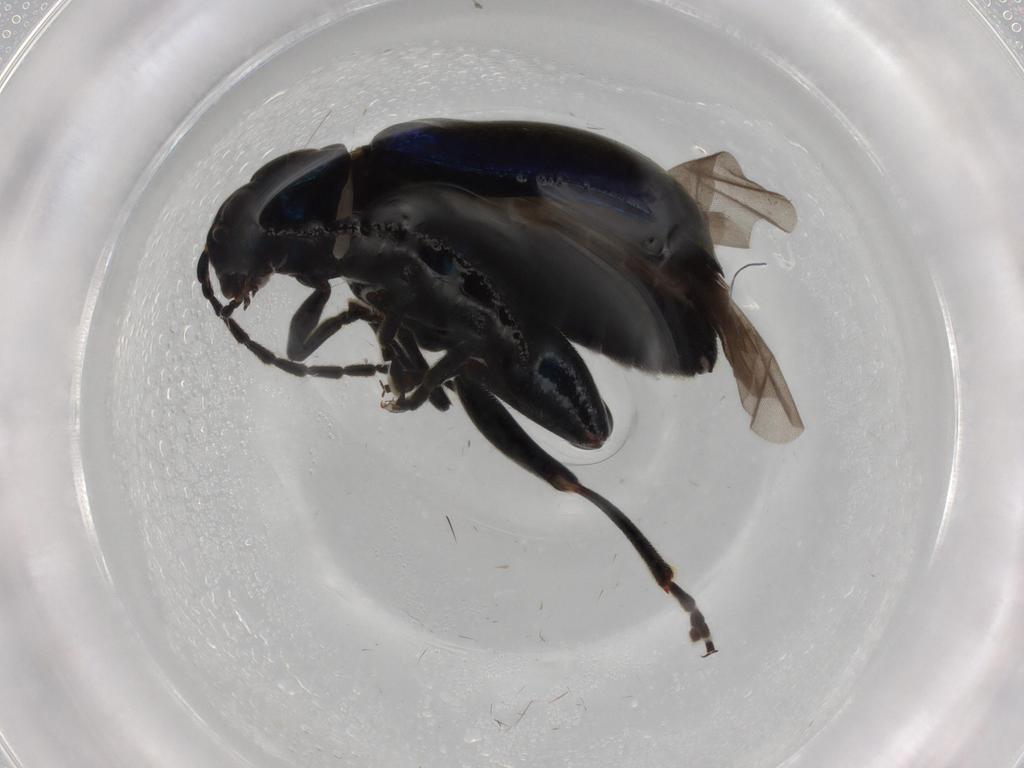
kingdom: Animalia
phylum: Arthropoda
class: Insecta
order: Coleoptera
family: Chrysomelidae
